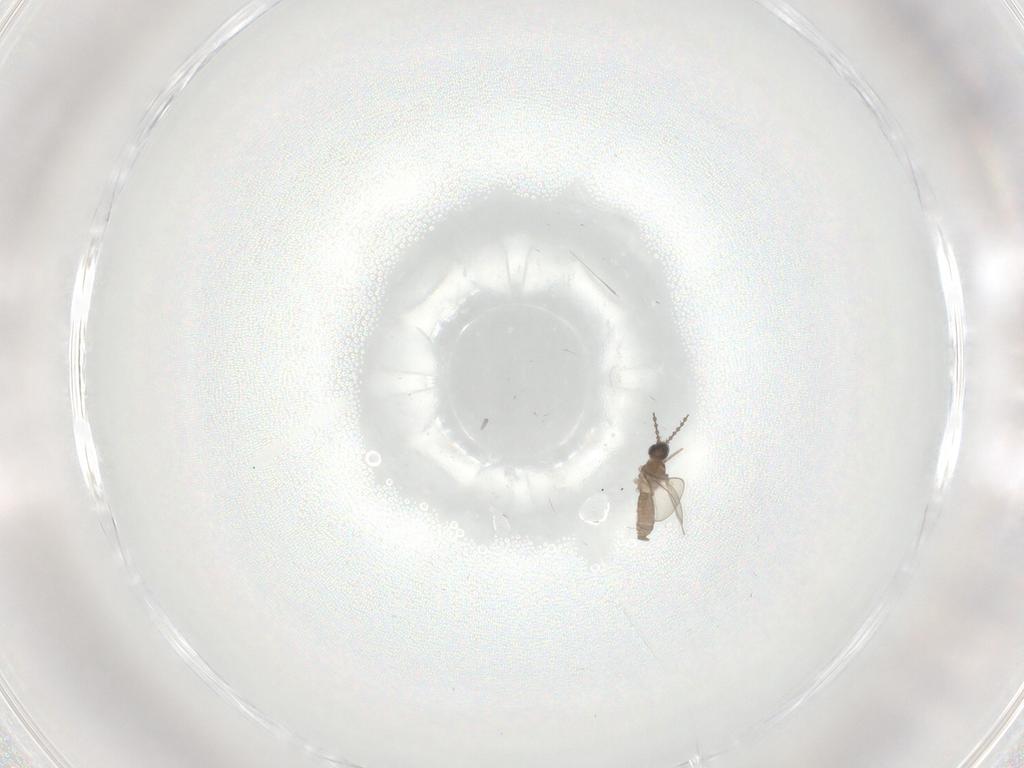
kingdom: Animalia
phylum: Arthropoda
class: Insecta
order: Diptera
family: Cecidomyiidae
